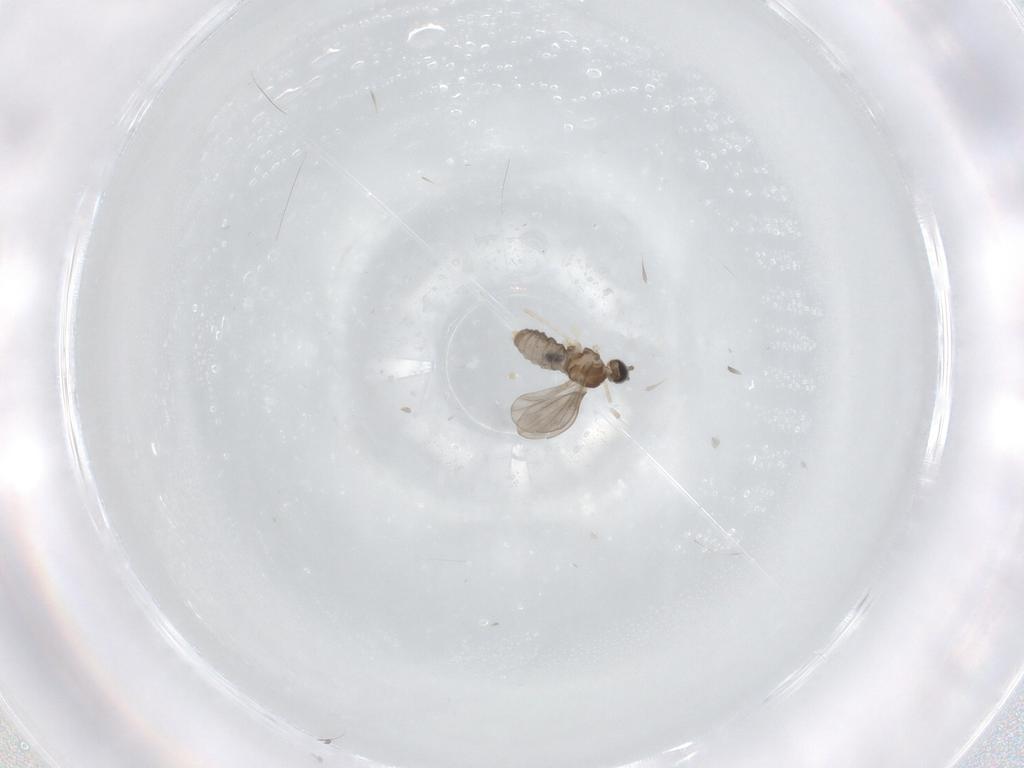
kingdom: Animalia
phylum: Arthropoda
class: Insecta
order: Diptera
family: Cecidomyiidae
